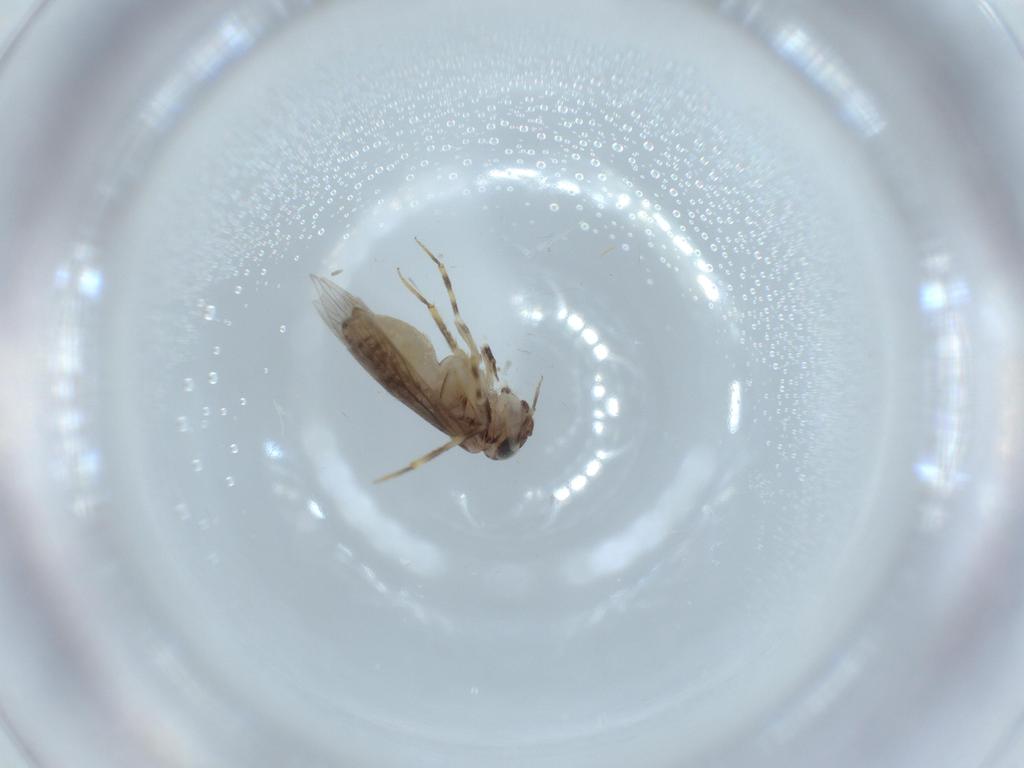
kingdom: Animalia
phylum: Arthropoda
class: Insecta
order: Psocodea
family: Lepidopsocidae
